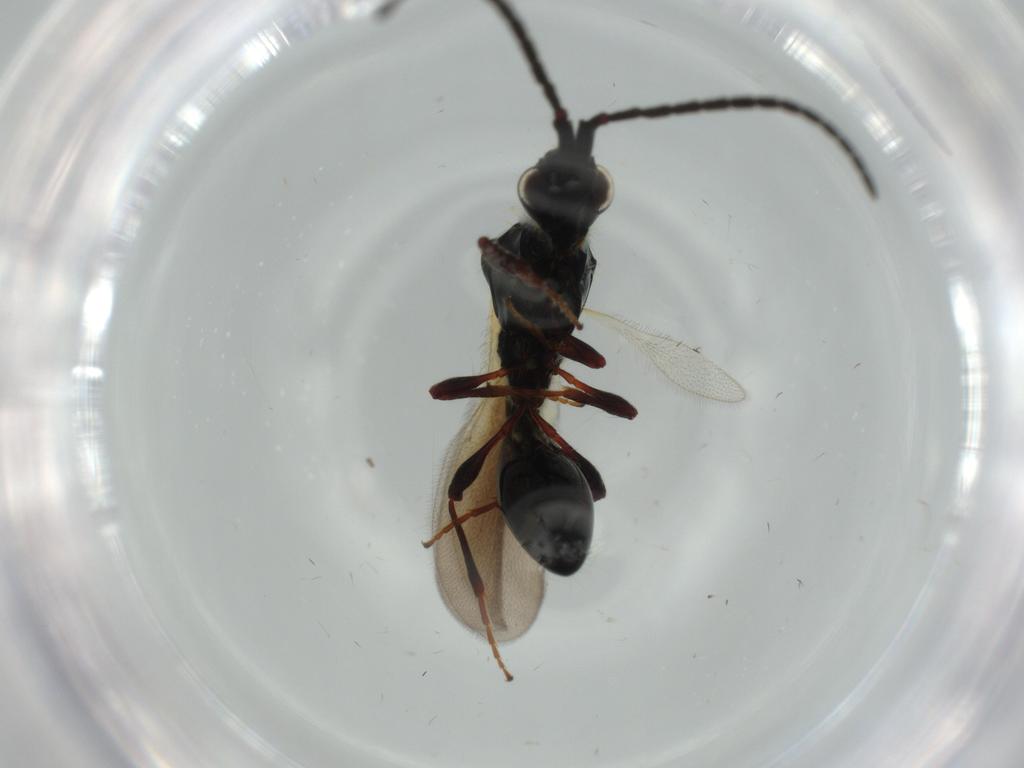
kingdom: Animalia
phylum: Arthropoda
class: Insecta
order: Hymenoptera
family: Diapriidae
